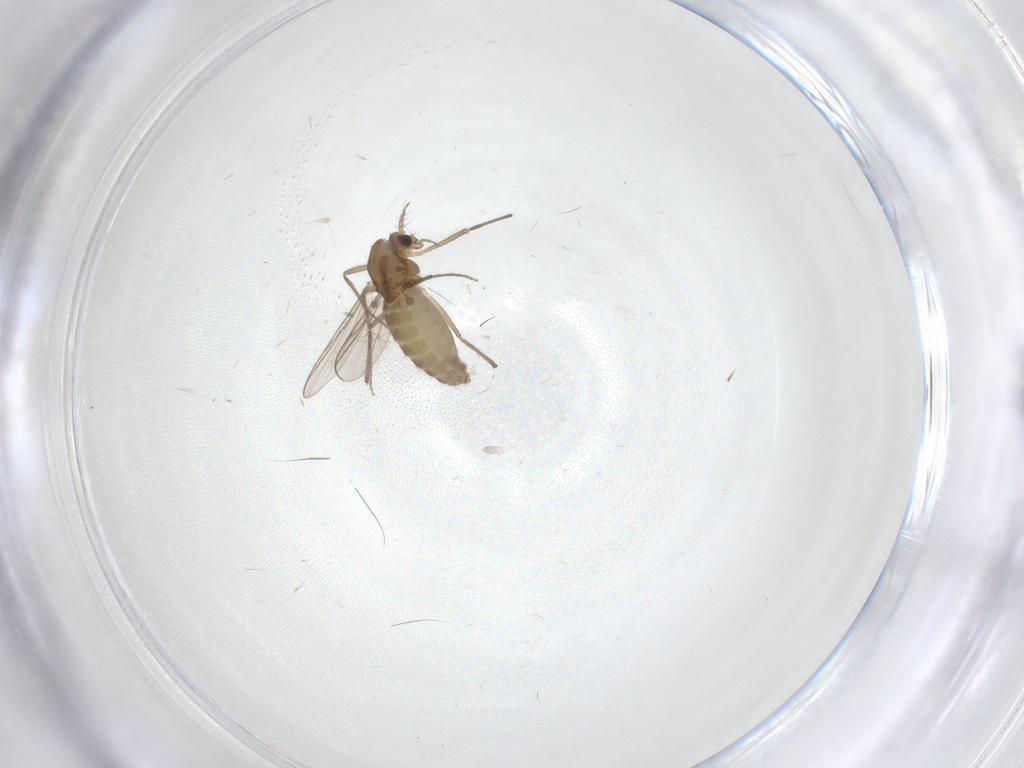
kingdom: Animalia
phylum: Arthropoda
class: Insecta
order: Diptera
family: Chironomidae
